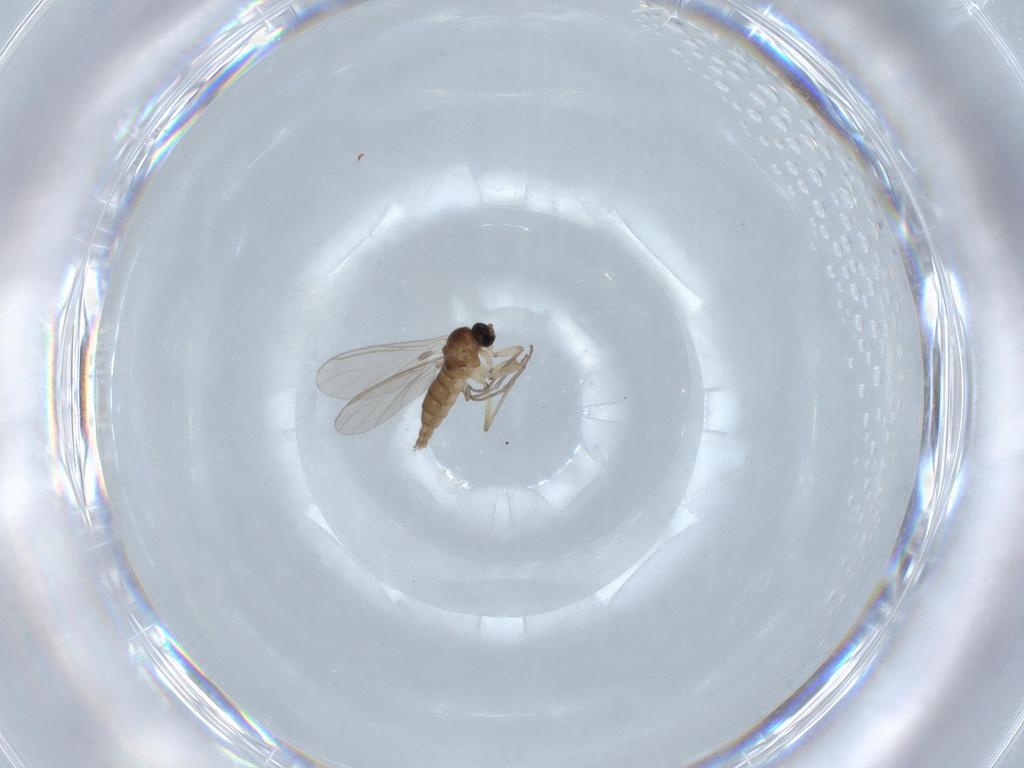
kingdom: Animalia
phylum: Arthropoda
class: Insecta
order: Diptera
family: Sciaridae
